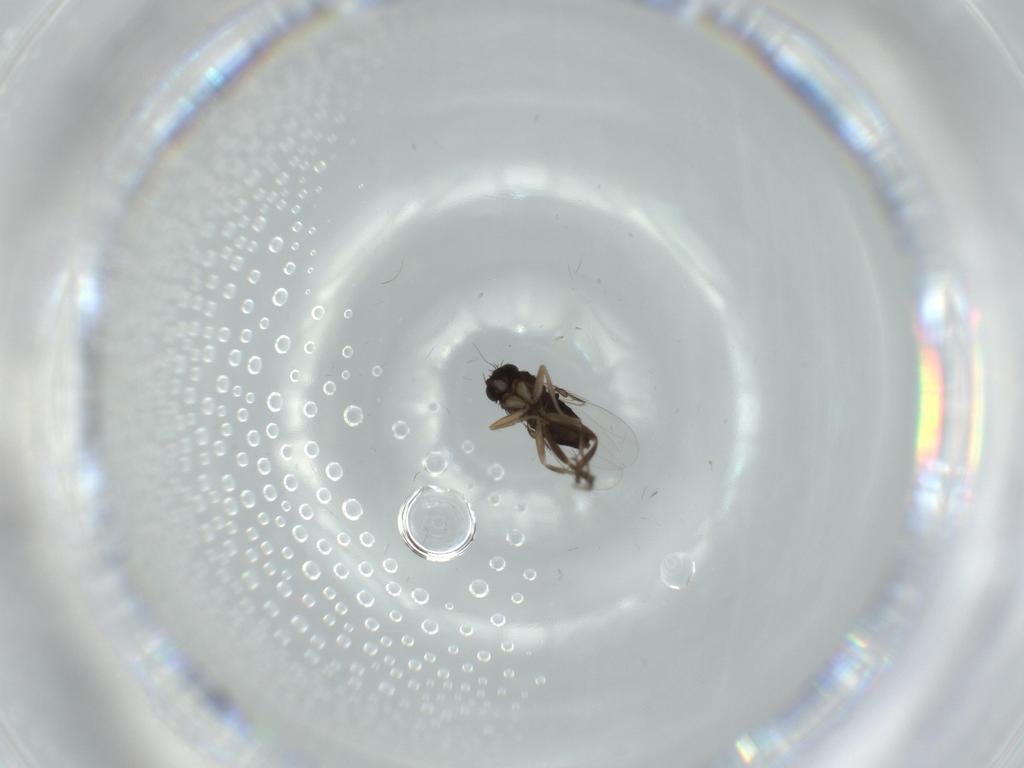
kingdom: Animalia
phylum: Arthropoda
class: Insecta
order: Diptera
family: Phoridae
